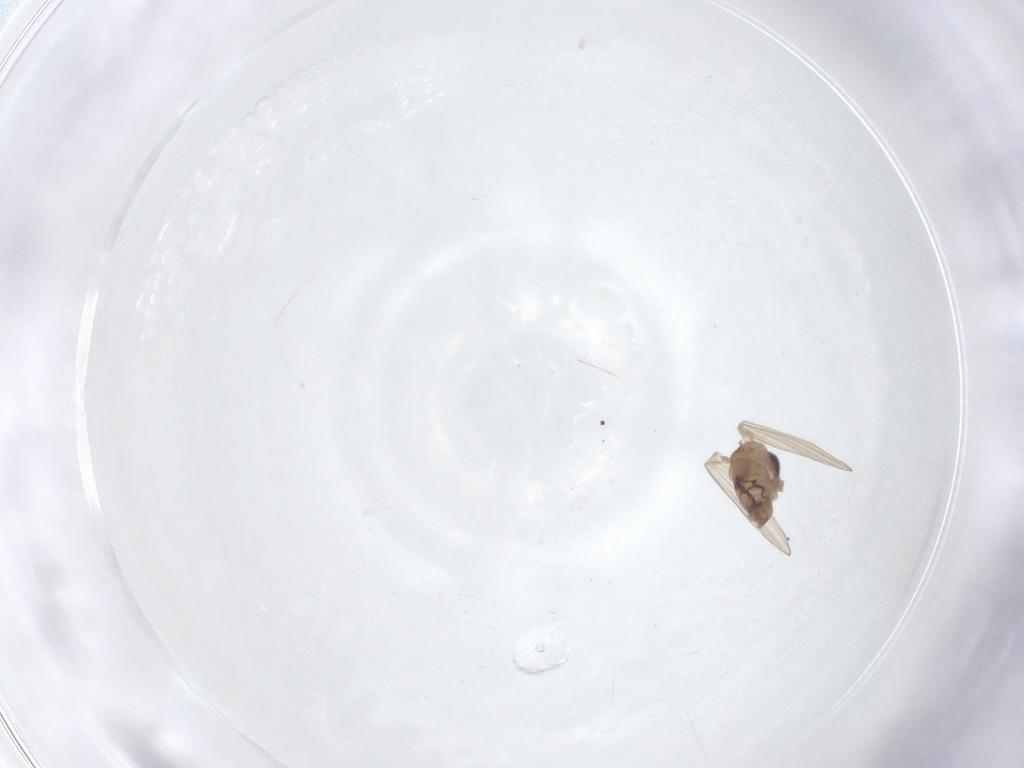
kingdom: Animalia
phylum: Arthropoda
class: Insecta
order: Diptera
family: Psychodidae
